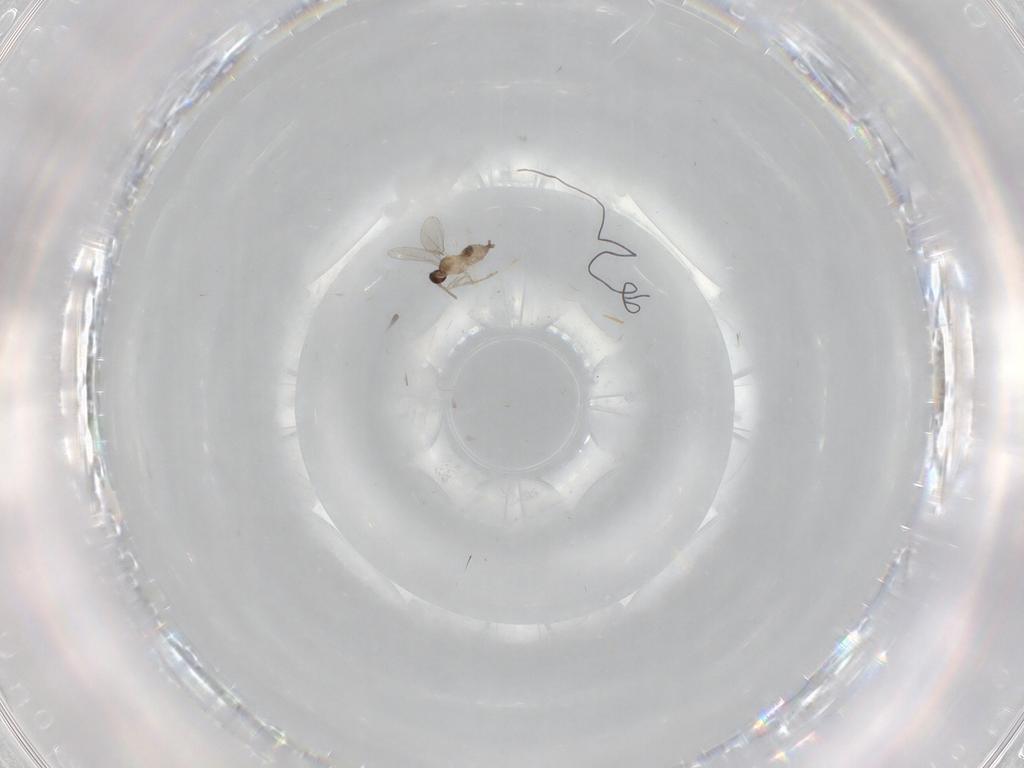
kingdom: Animalia
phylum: Arthropoda
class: Insecta
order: Diptera
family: Cecidomyiidae
